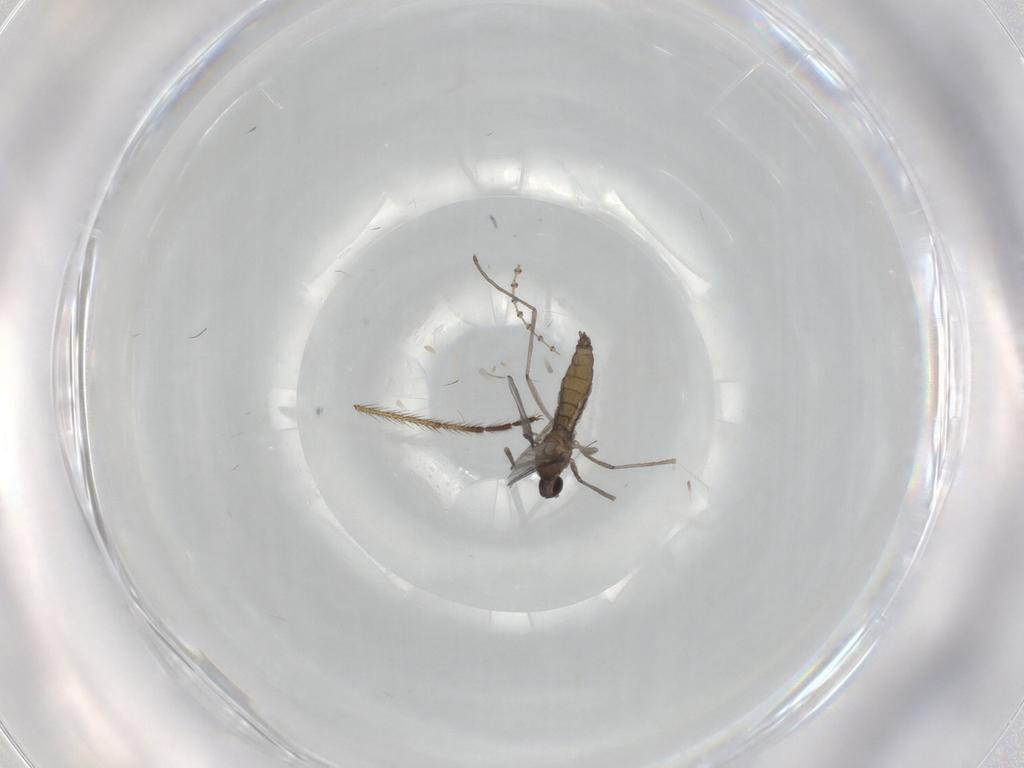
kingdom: Animalia
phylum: Arthropoda
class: Insecta
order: Diptera
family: Cecidomyiidae
